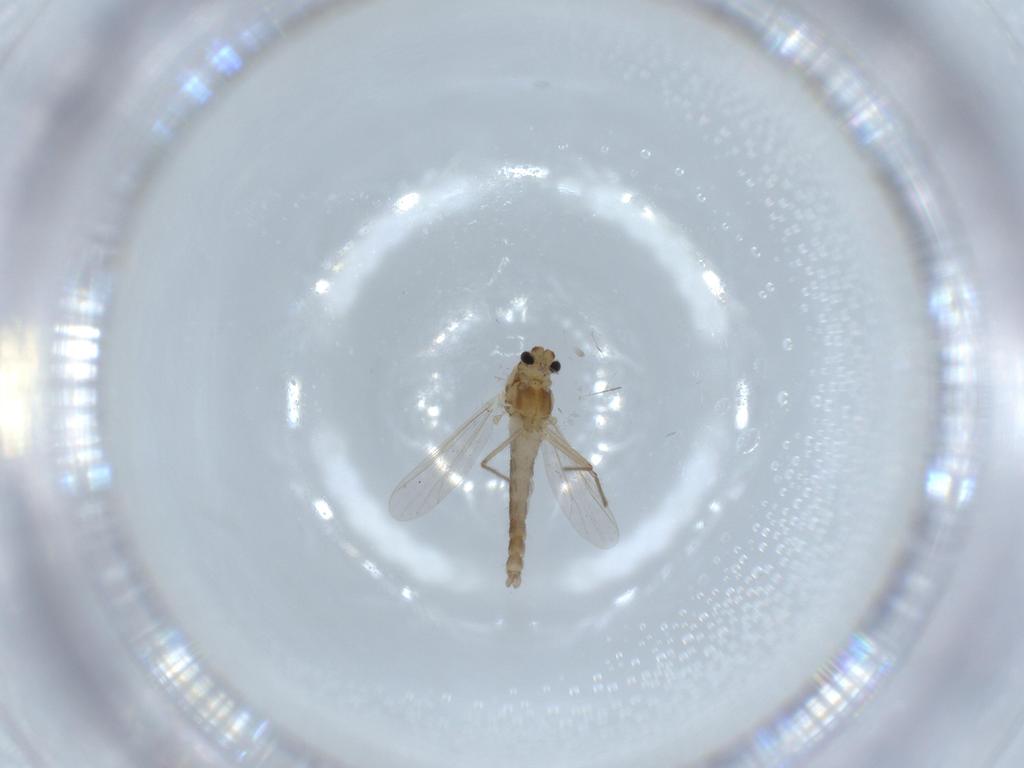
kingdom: Animalia
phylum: Arthropoda
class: Insecta
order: Diptera
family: Chironomidae
